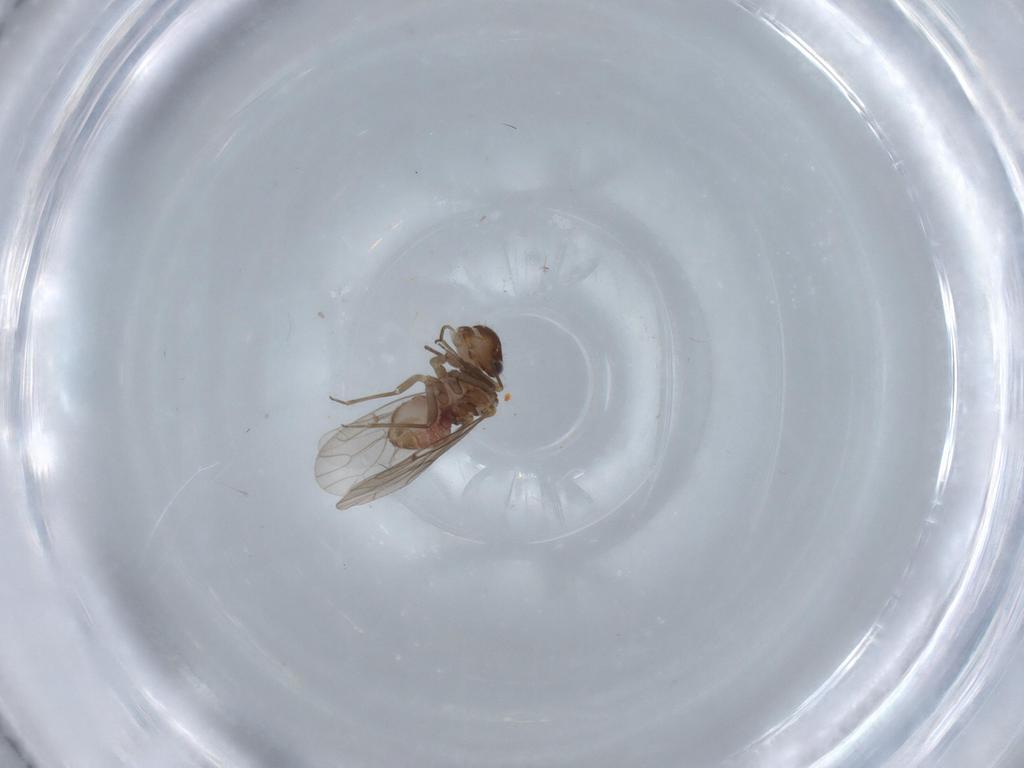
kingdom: Animalia
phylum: Arthropoda
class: Insecta
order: Psocodea
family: Ectopsocidae
